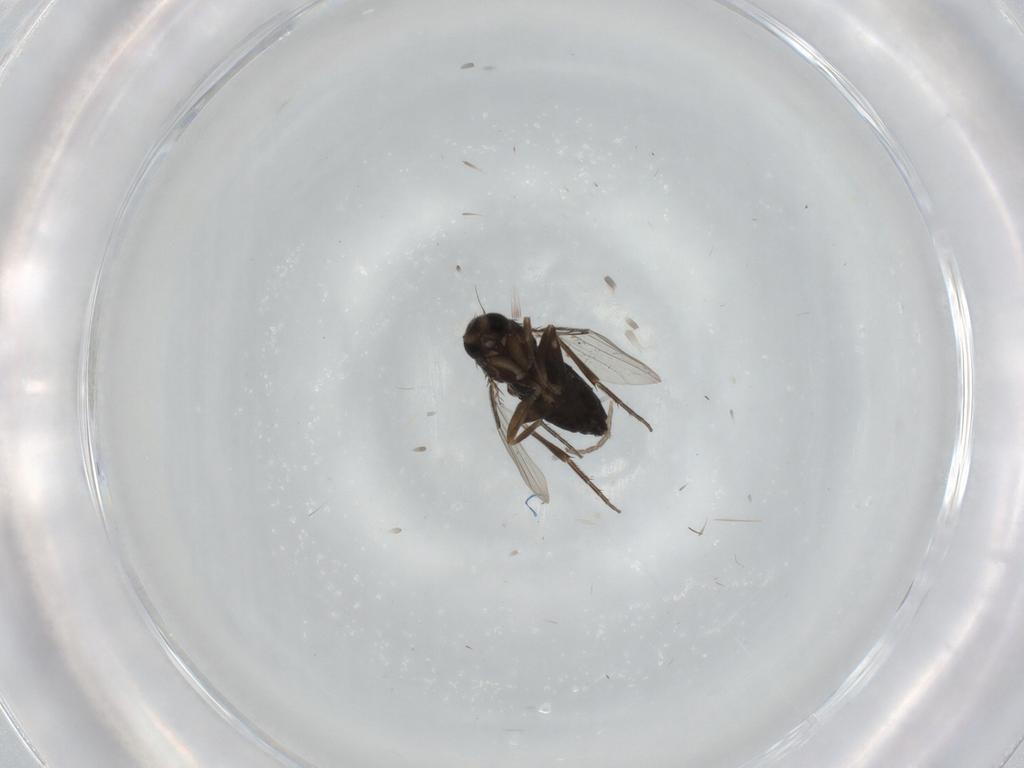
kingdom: Animalia
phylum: Arthropoda
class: Insecta
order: Diptera
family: Phoridae
